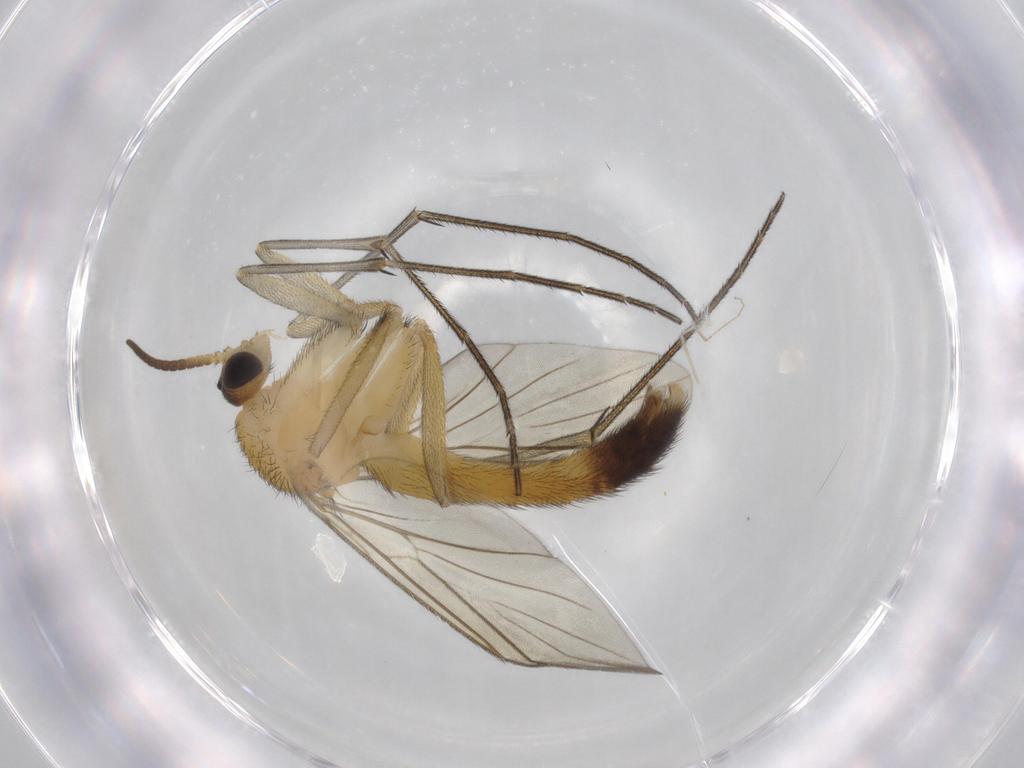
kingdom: Animalia
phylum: Arthropoda
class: Insecta
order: Diptera
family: Keroplatidae
